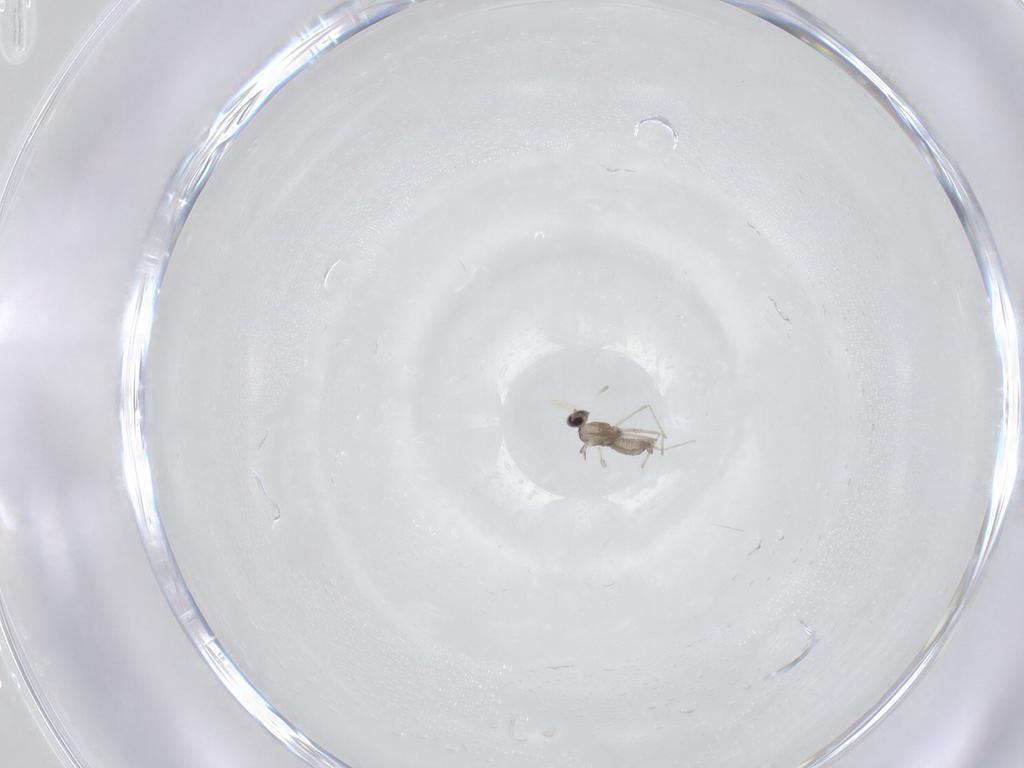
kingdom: Animalia
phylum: Arthropoda
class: Insecta
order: Diptera
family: Cecidomyiidae
